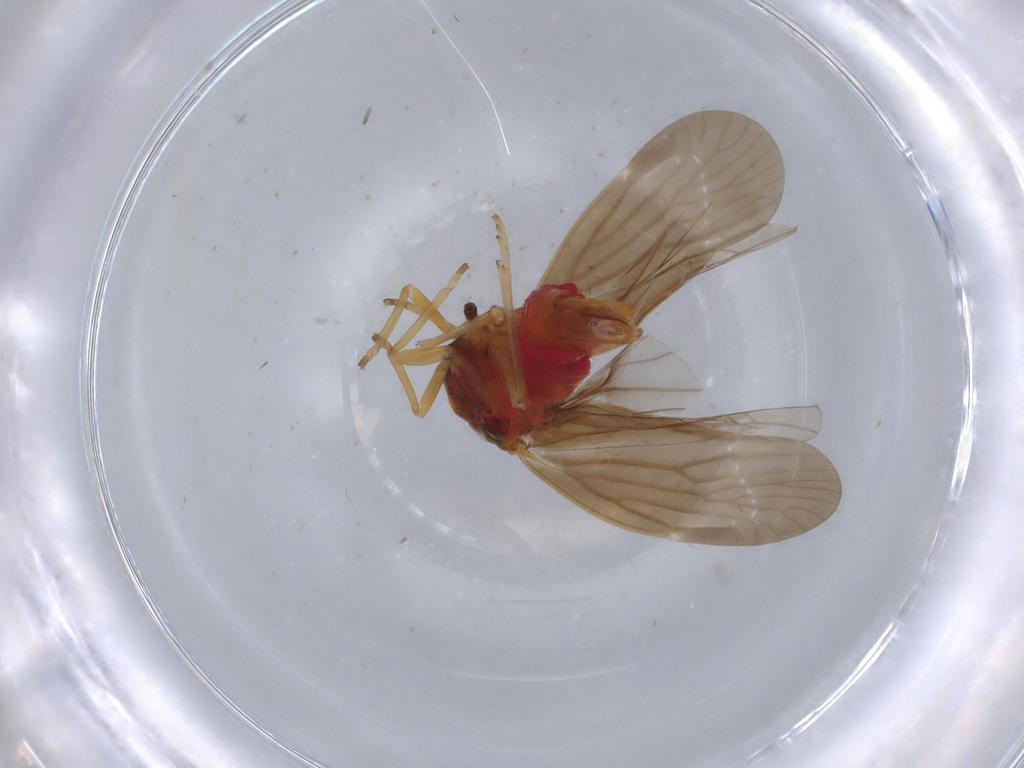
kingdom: Animalia
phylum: Arthropoda
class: Insecta
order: Hemiptera
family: Derbidae
